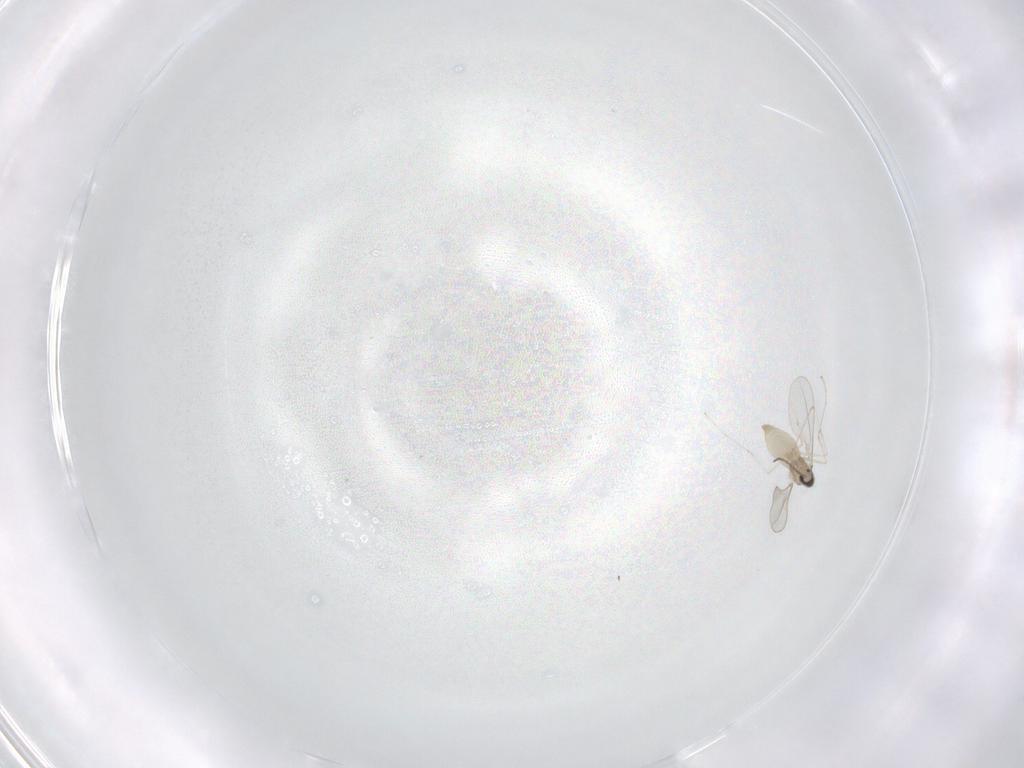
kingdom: Animalia
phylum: Arthropoda
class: Insecta
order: Diptera
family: Cecidomyiidae
